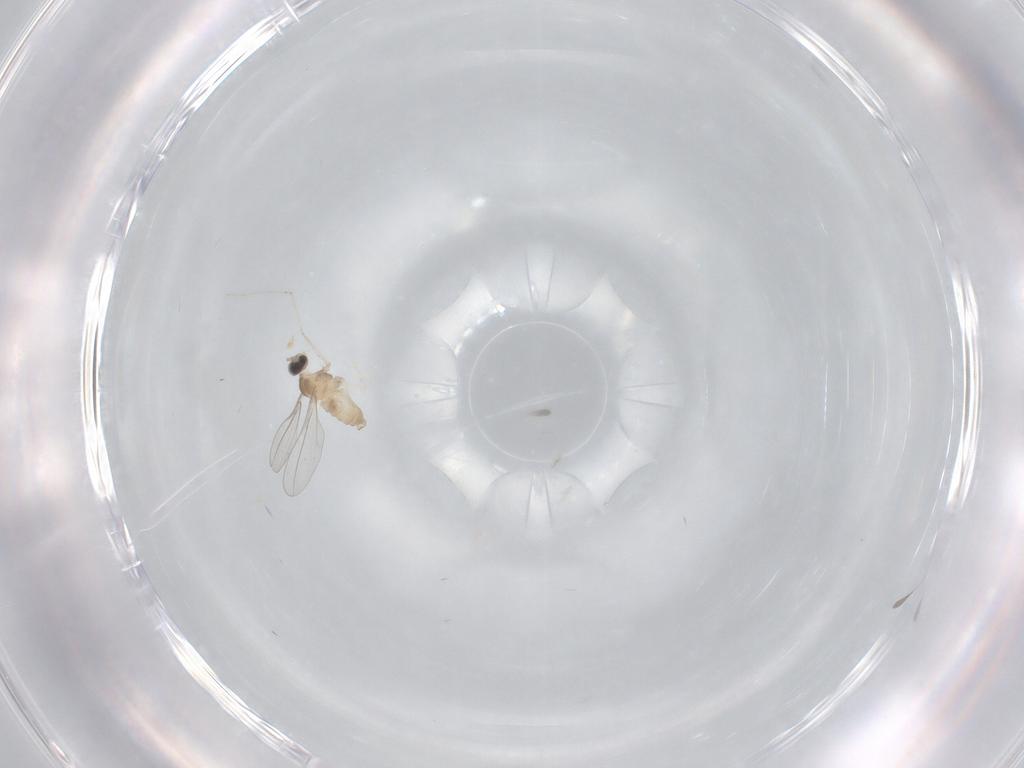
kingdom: Animalia
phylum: Arthropoda
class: Insecta
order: Diptera
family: Cecidomyiidae
